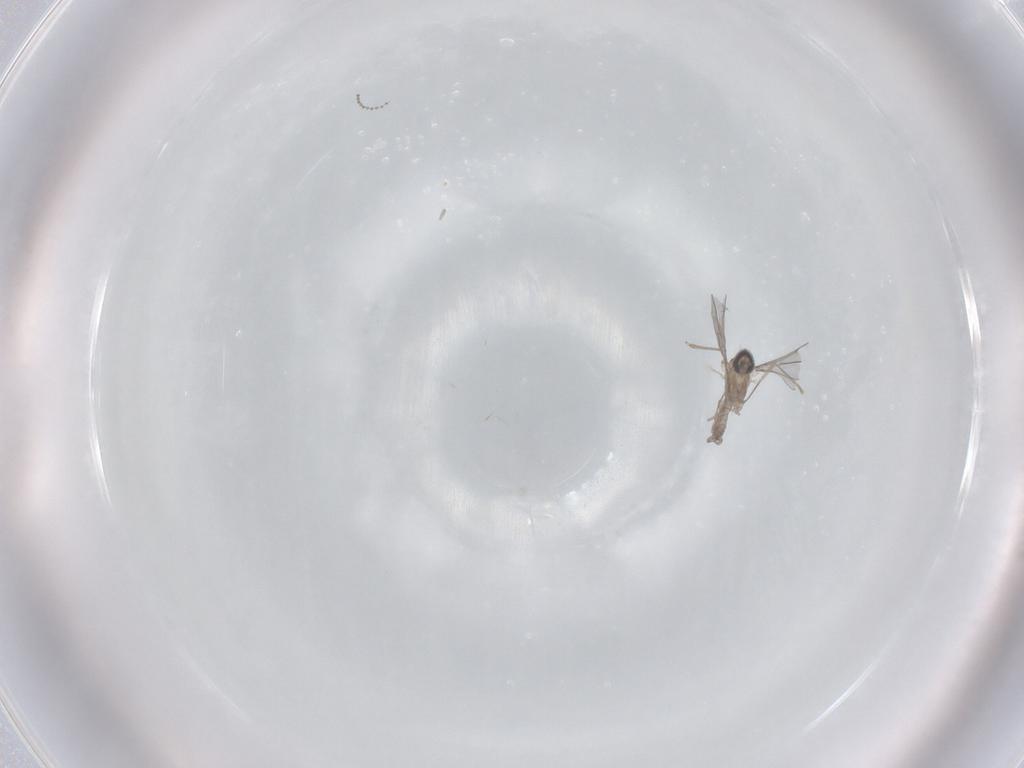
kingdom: Animalia
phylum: Arthropoda
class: Insecta
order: Diptera
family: Cecidomyiidae
